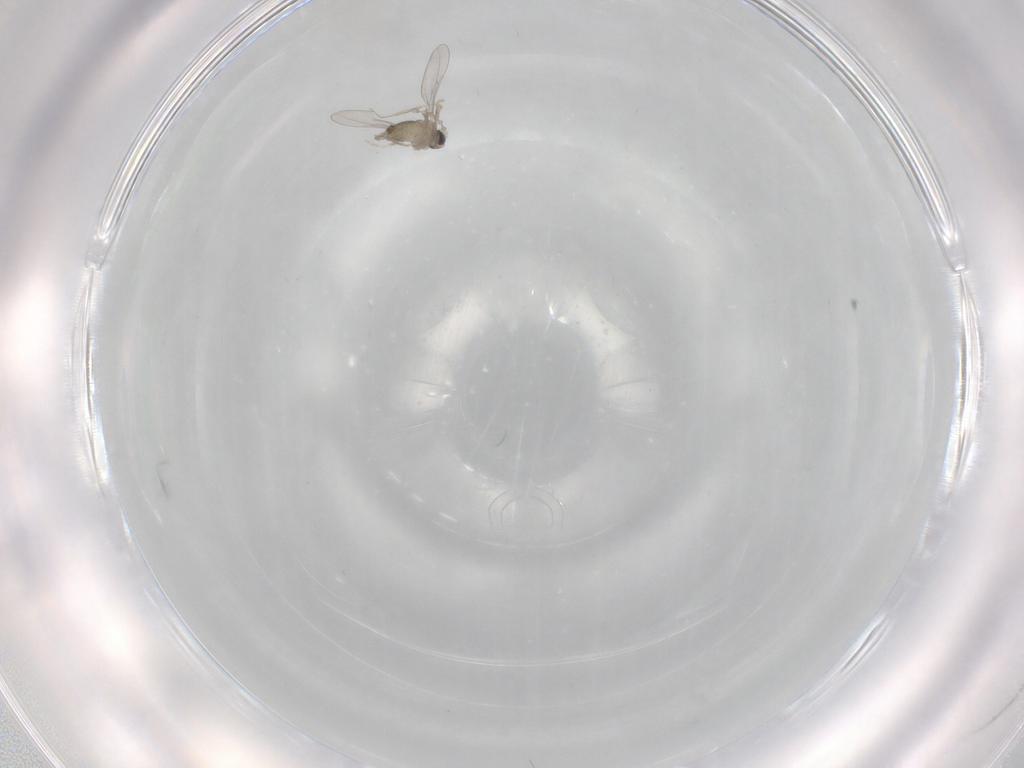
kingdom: Animalia
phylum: Arthropoda
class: Insecta
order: Diptera
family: Cecidomyiidae
